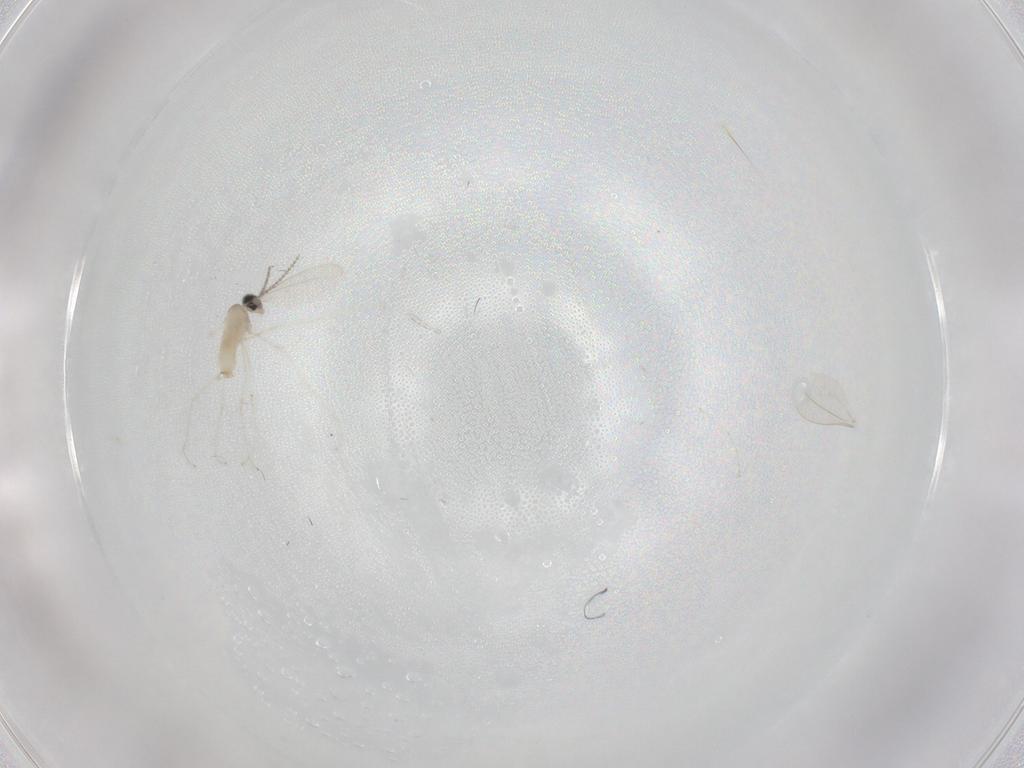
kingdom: Animalia
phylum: Arthropoda
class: Insecta
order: Diptera
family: Cecidomyiidae
